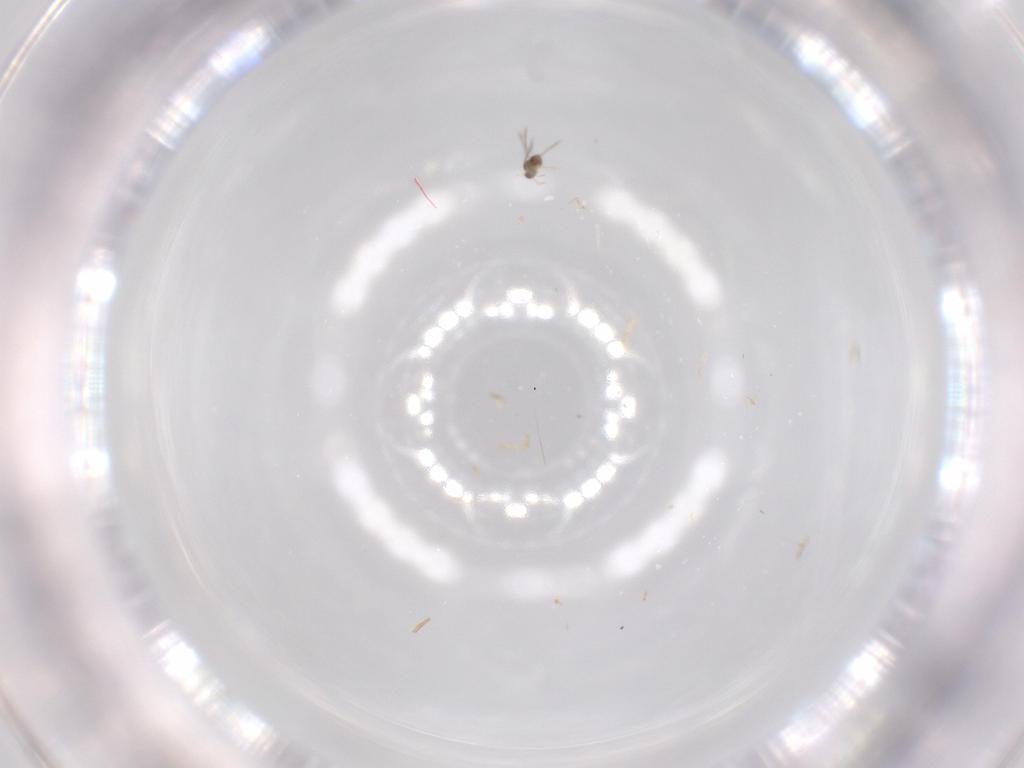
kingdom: Animalia
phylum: Arthropoda
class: Insecta
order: Hymenoptera
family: Mymaridae
